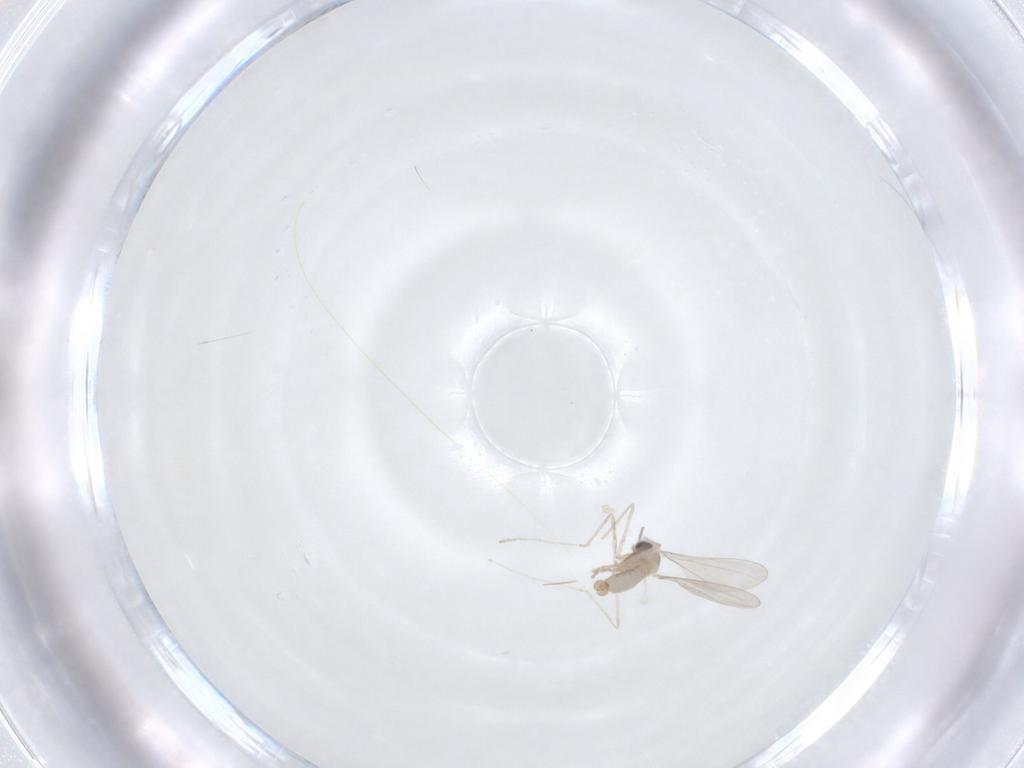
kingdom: Animalia
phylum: Arthropoda
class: Insecta
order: Diptera
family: Cecidomyiidae
